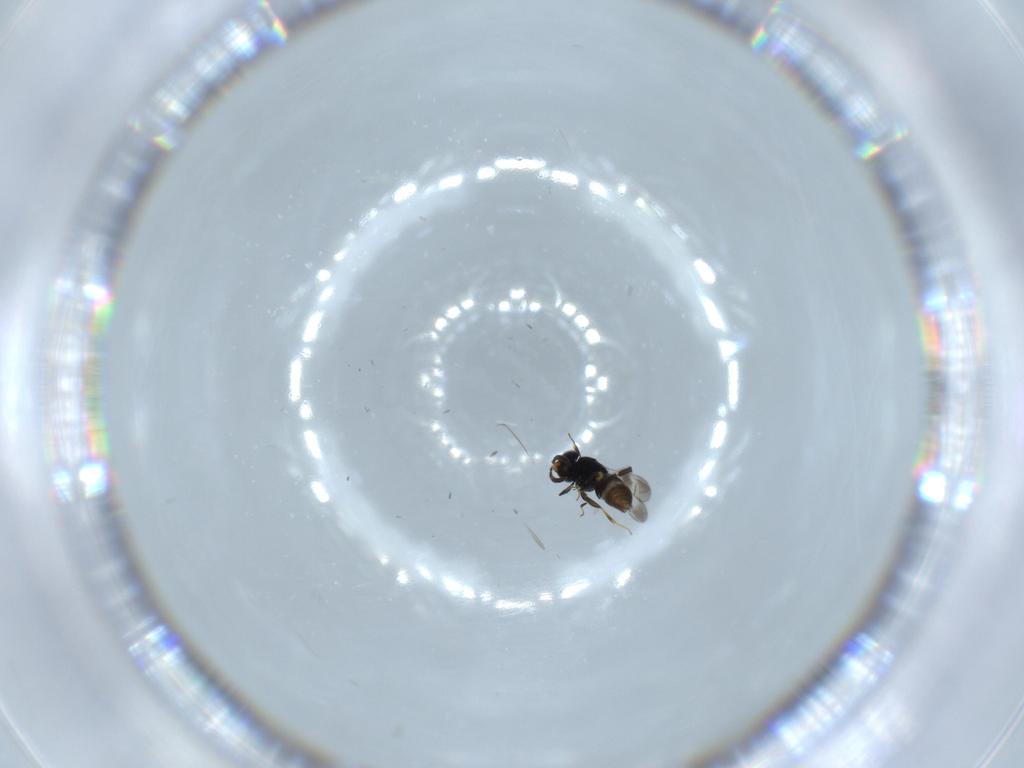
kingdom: Animalia
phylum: Arthropoda
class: Insecta
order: Diptera
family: Sciaridae
